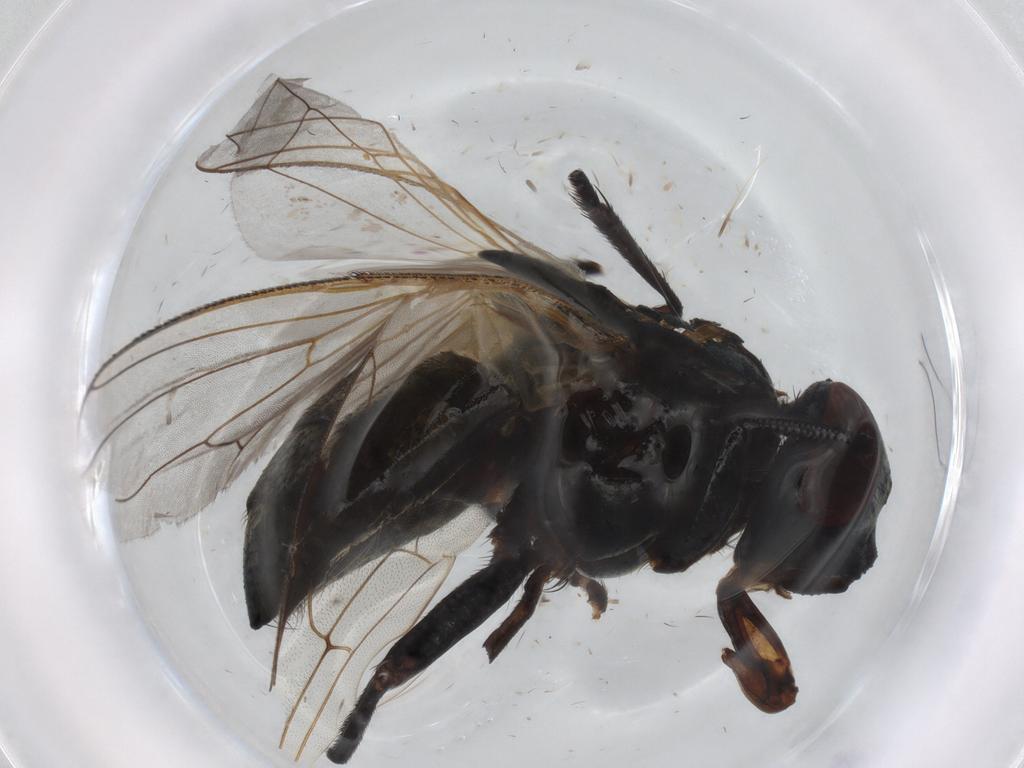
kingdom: Animalia
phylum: Arthropoda
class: Insecta
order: Diptera
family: Muscidae
